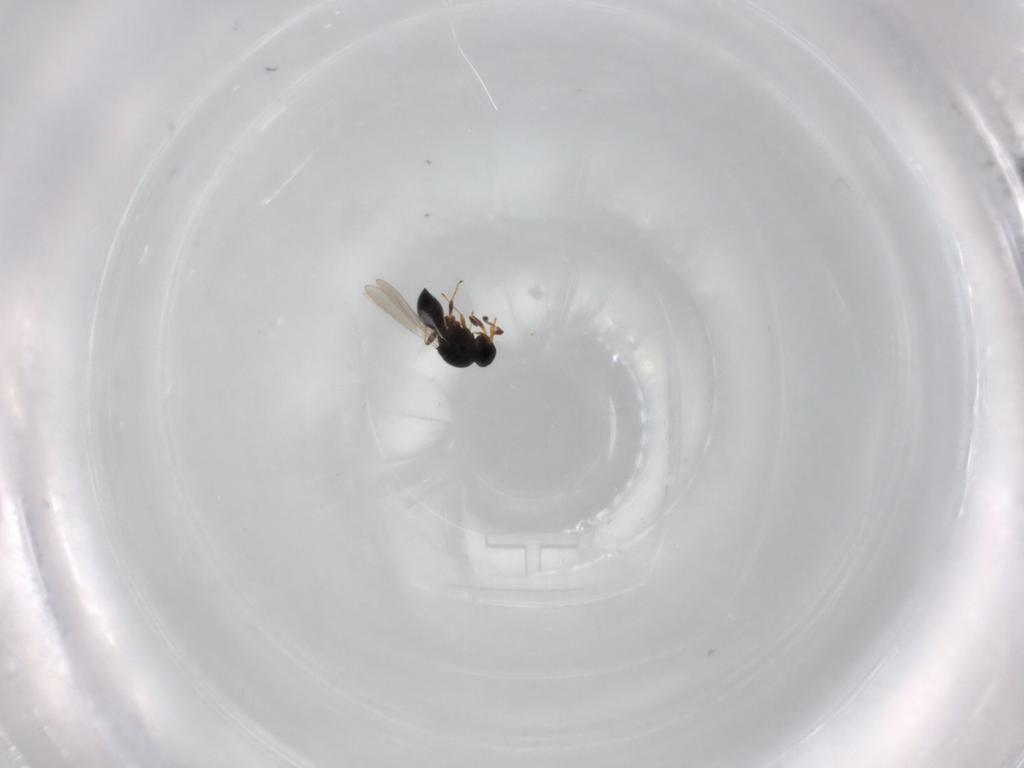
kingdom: Animalia
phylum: Arthropoda
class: Insecta
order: Hymenoptera
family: Platygastridae
